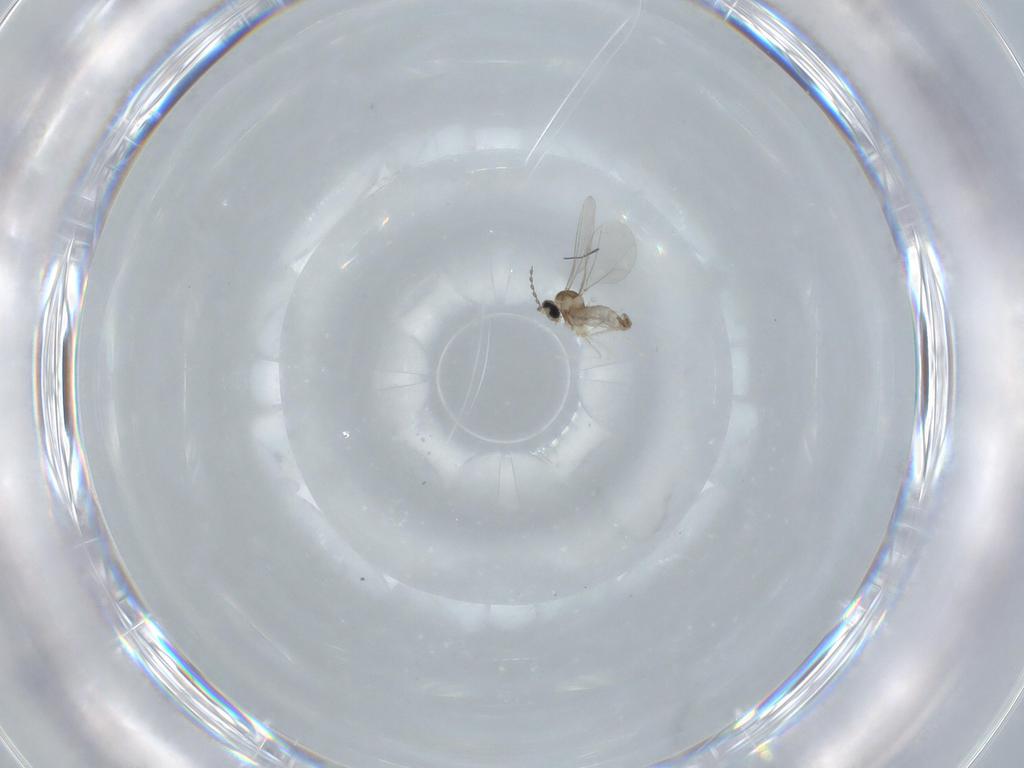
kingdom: Animalia
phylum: Arthropoda
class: Insecta
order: Diptera
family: Cecidomyiidae
